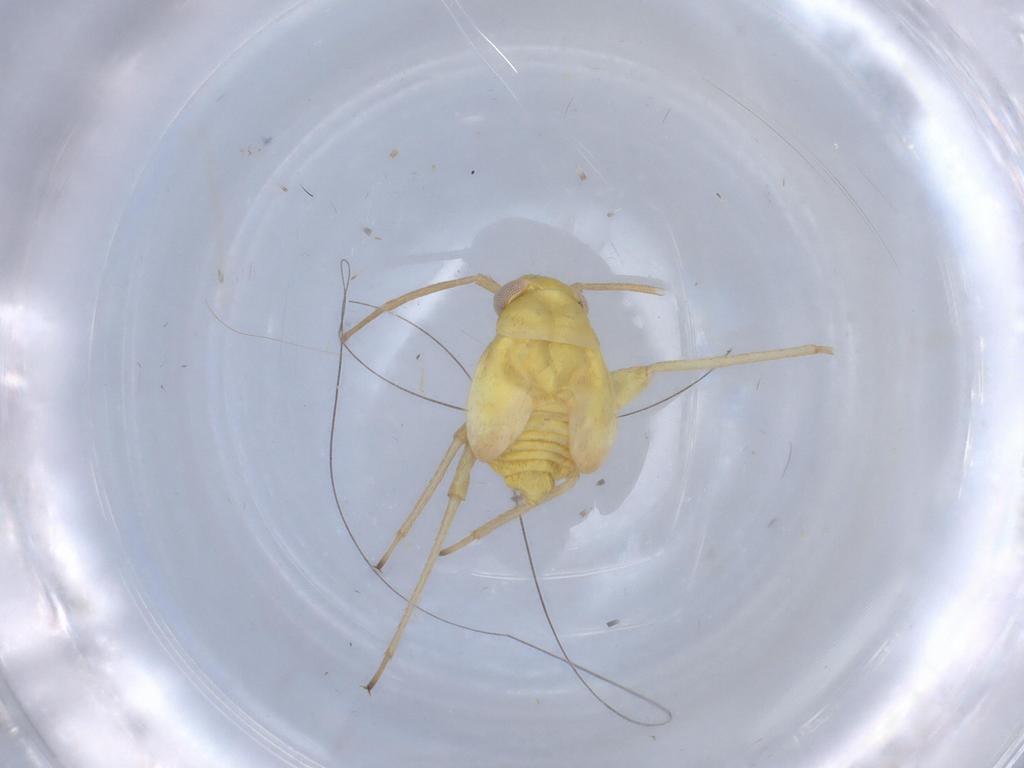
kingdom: Animalia
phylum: Arthropoda
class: Insecta
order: Hemiptera
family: Miridae
